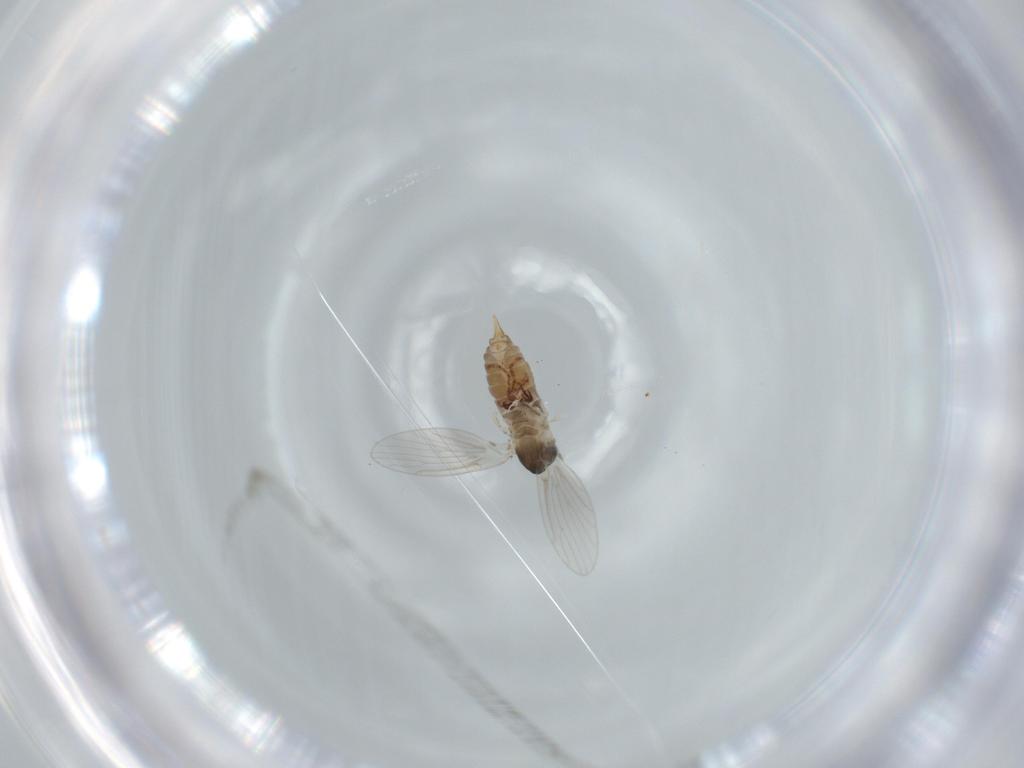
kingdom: Animalia
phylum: Arthropoda
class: Insecta
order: Diptera
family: Psychodidae
